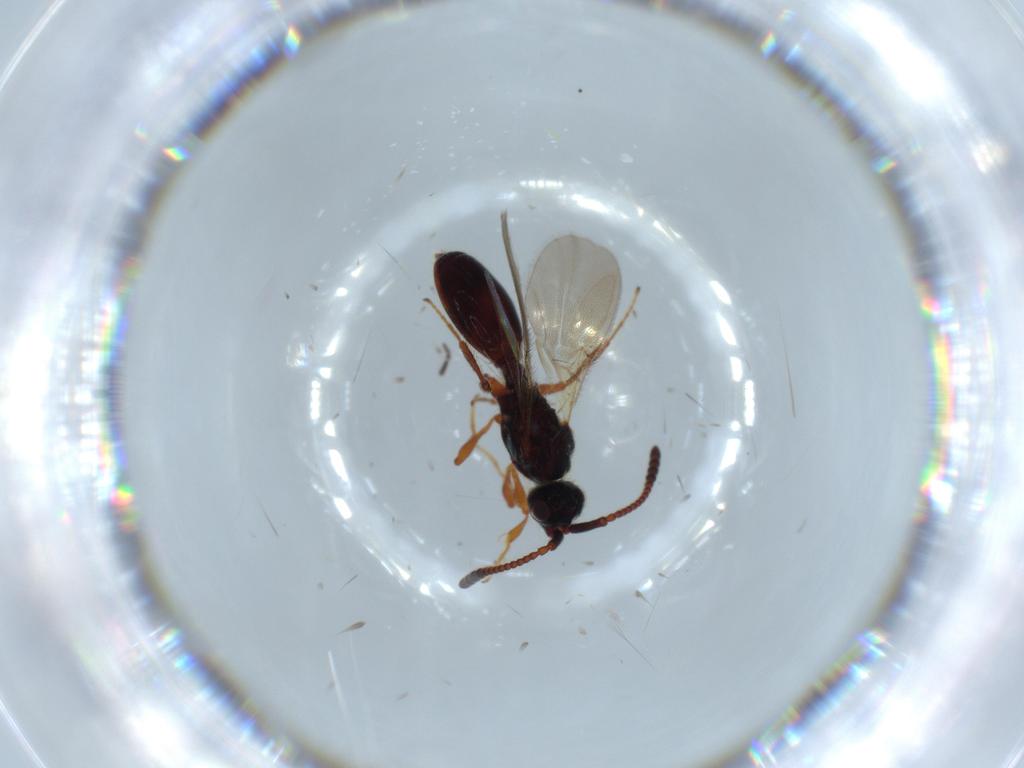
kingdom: Animalia
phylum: Arthropoda
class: Insecta
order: Hymenoptera
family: Diapriidae
